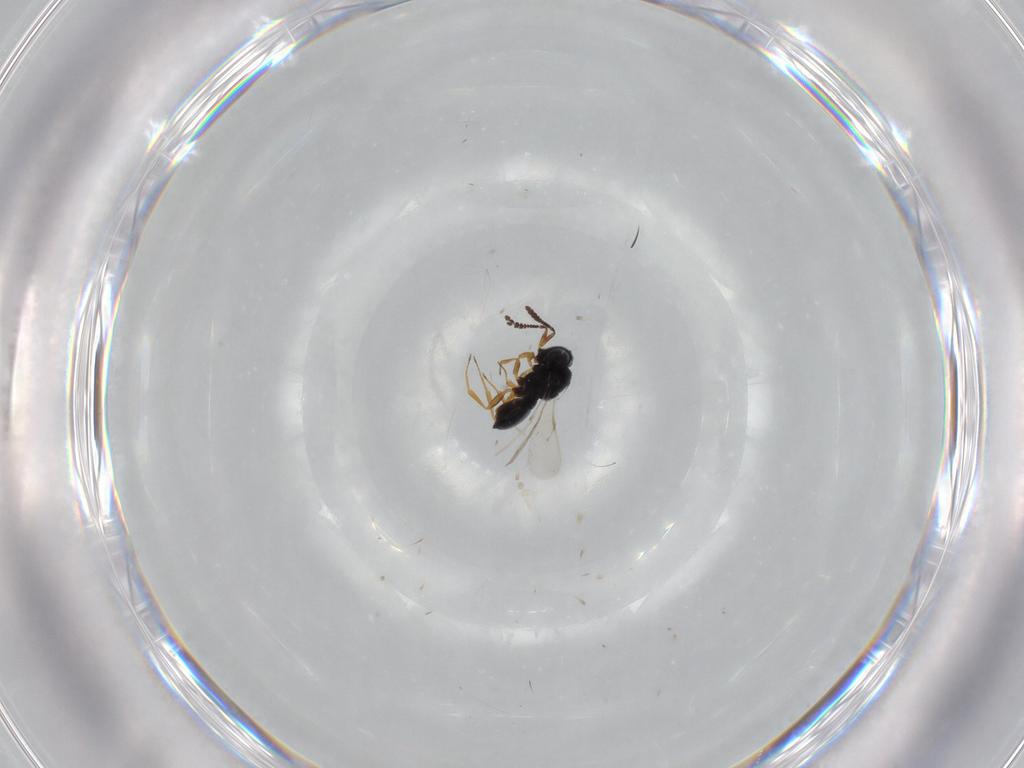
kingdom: Animalia
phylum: Arthropoda
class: Insecta
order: Hymenoptera
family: Scelionidae
